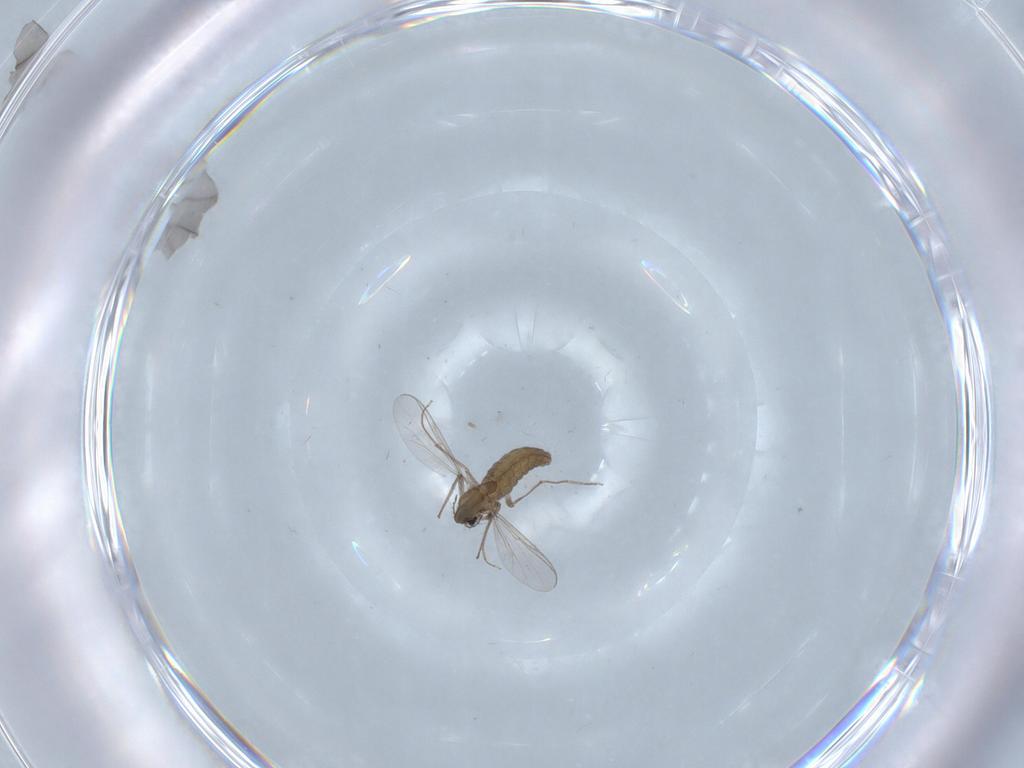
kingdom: Animalia
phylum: Arthropoda
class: Insecta
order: Diptera
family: Chironomidae
